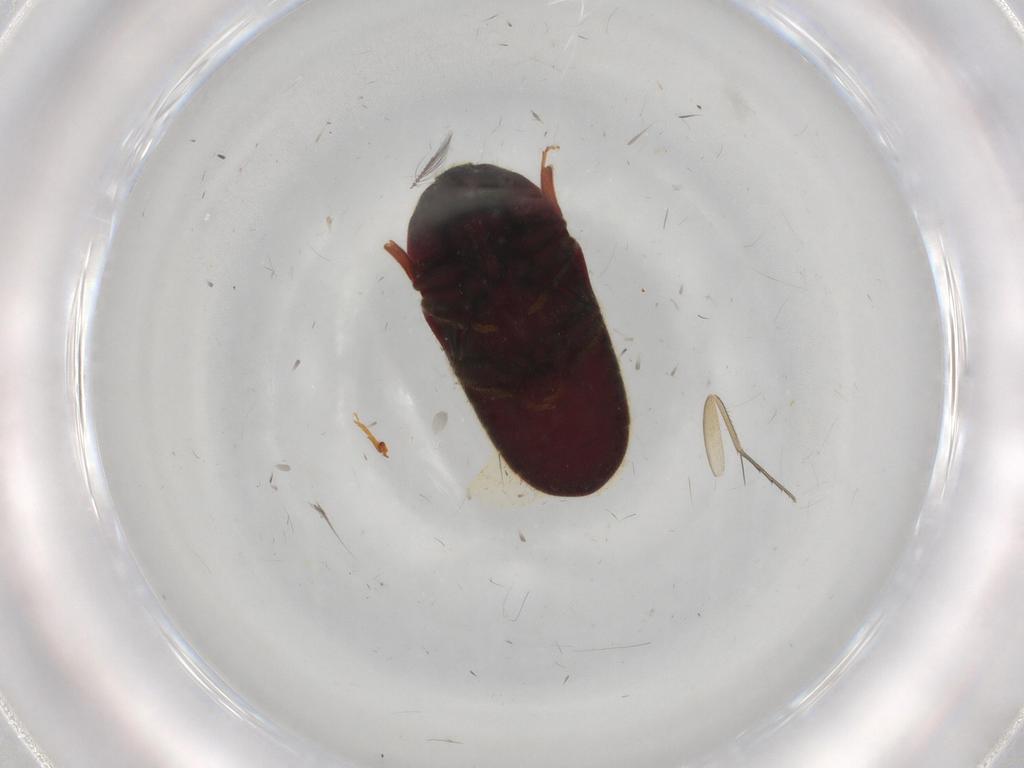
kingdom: Animalia
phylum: Arthropoda
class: Insecta
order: Coleoptera
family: Throscidae
